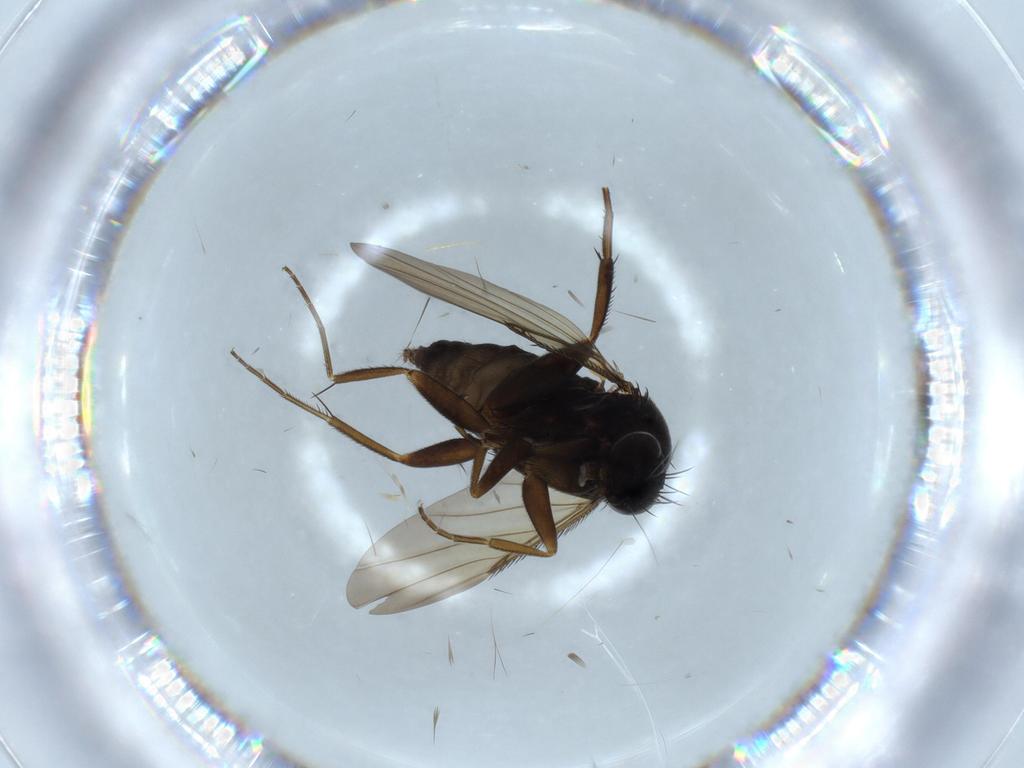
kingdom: Animalia
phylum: Arthropoda
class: Insecta
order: Diptera
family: Phoridae
